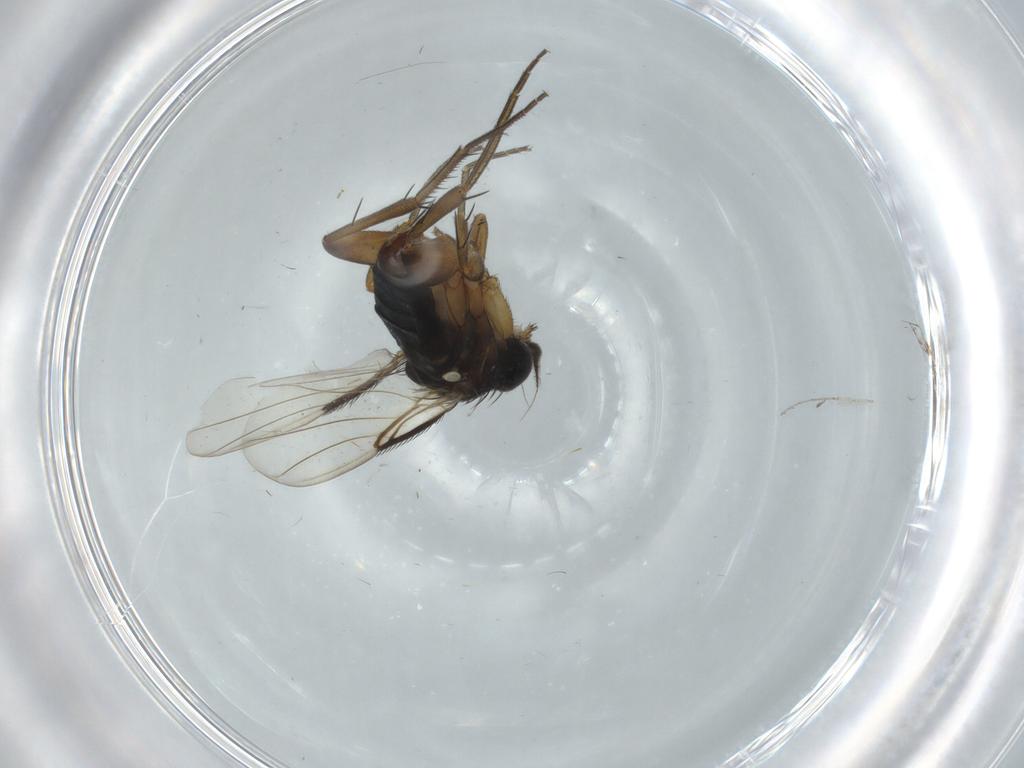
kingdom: Animalia
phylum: Arthropoda
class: Insecta
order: Diptera
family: Phoridae
